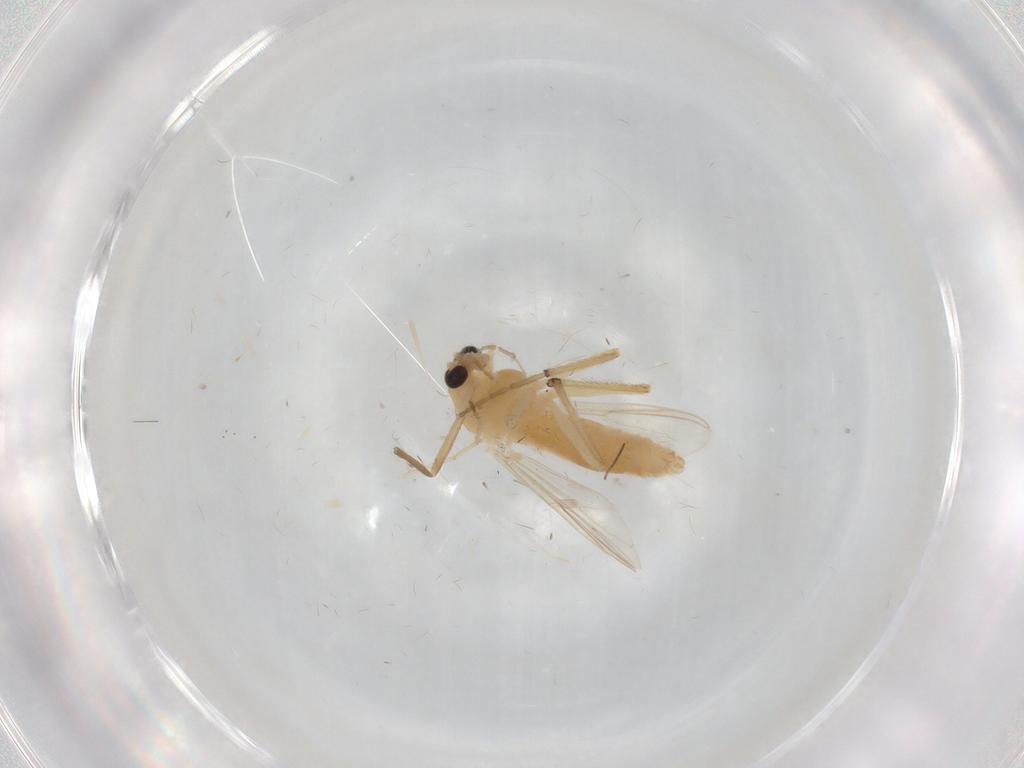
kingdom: Animalia
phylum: Arthropoda
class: Insecta
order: Diptera
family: Chironomidae
